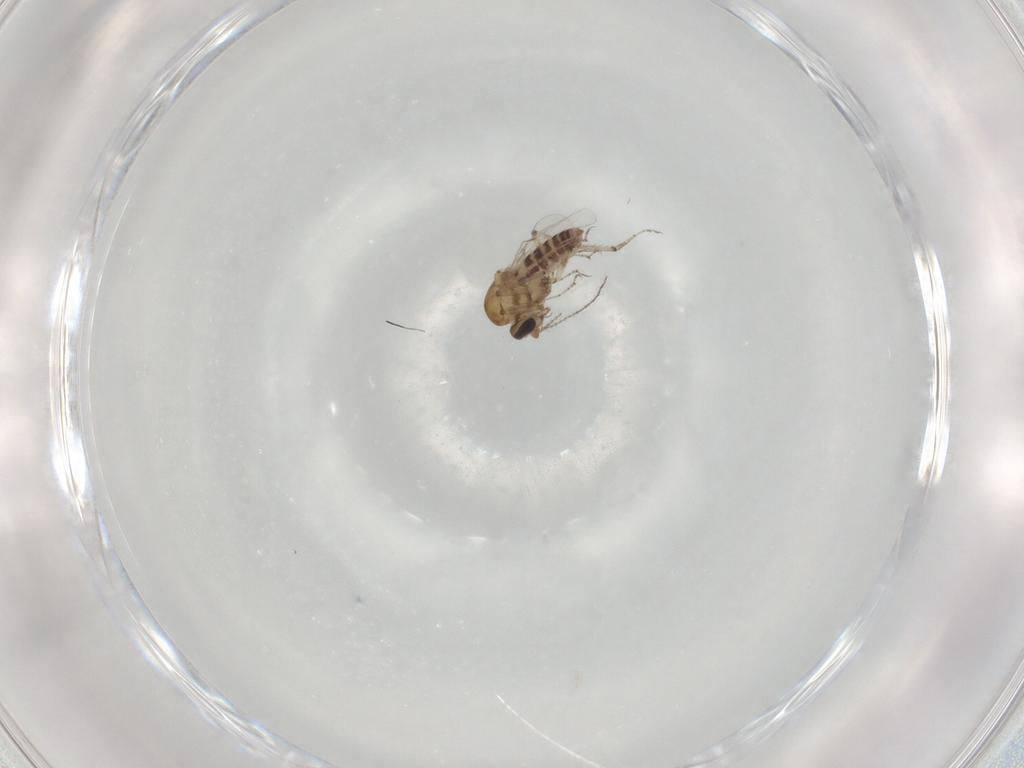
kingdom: Animalia
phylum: Arthropoda
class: Insecta
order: Diptera
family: Ceratopogonidae
